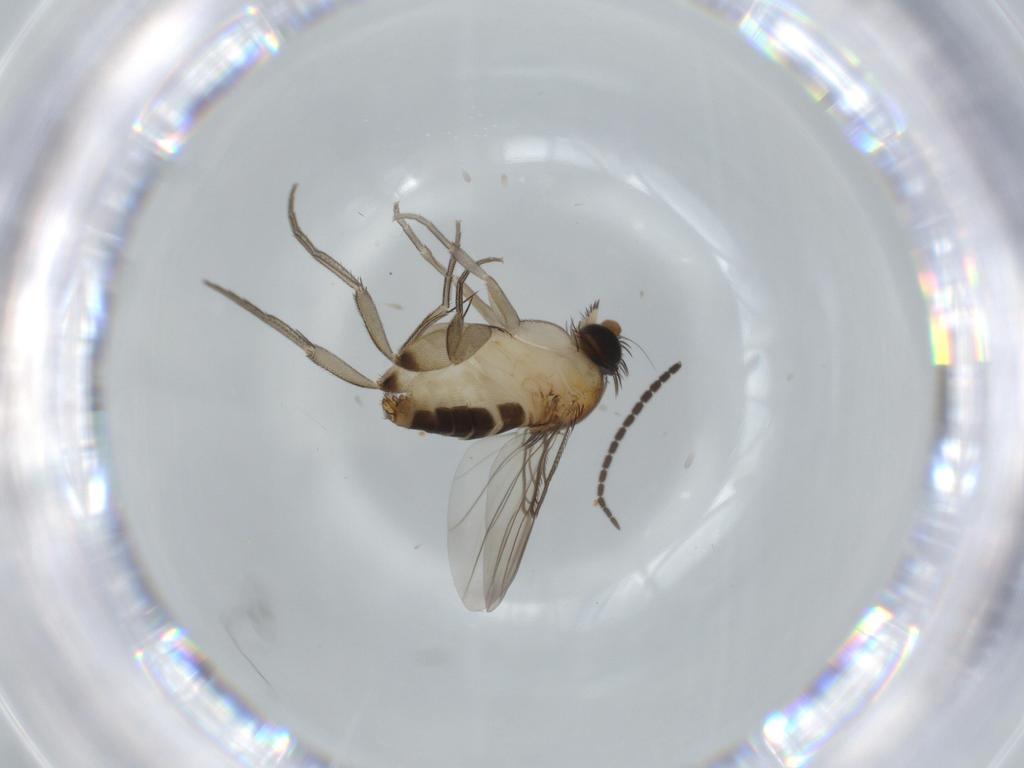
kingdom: Animalia
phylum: Arthropoda
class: Insecta
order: Diptera
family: Phoridae
